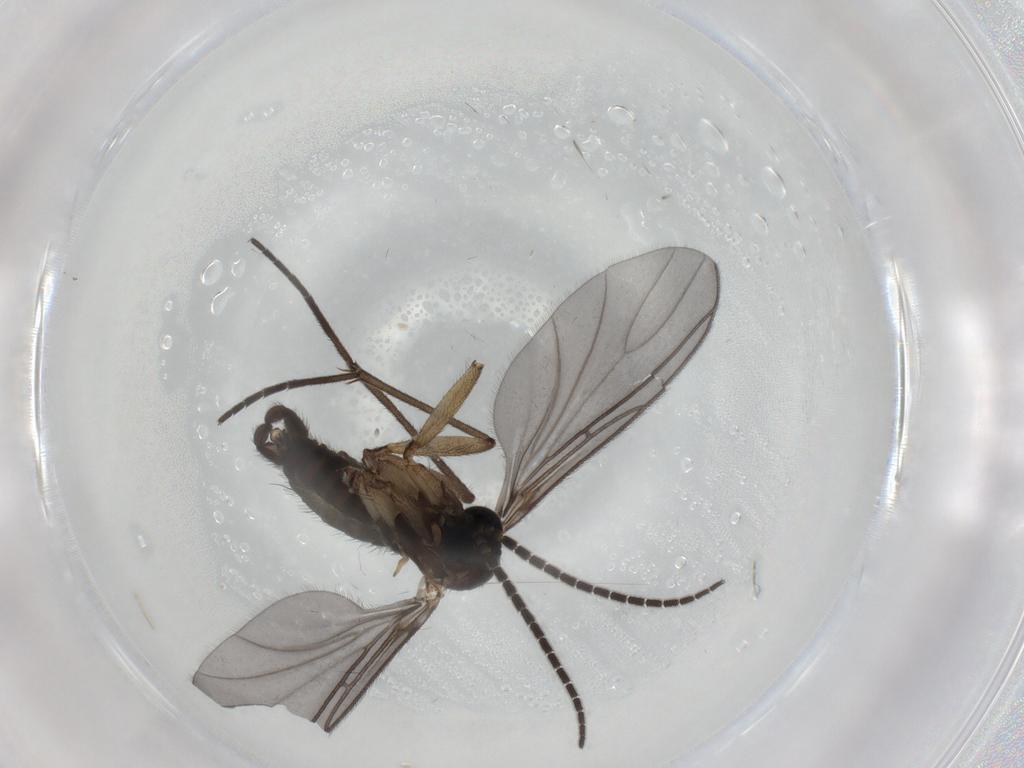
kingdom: Animalia
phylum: Arthropoda
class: Insecta
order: Diptera
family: Sciaridae
